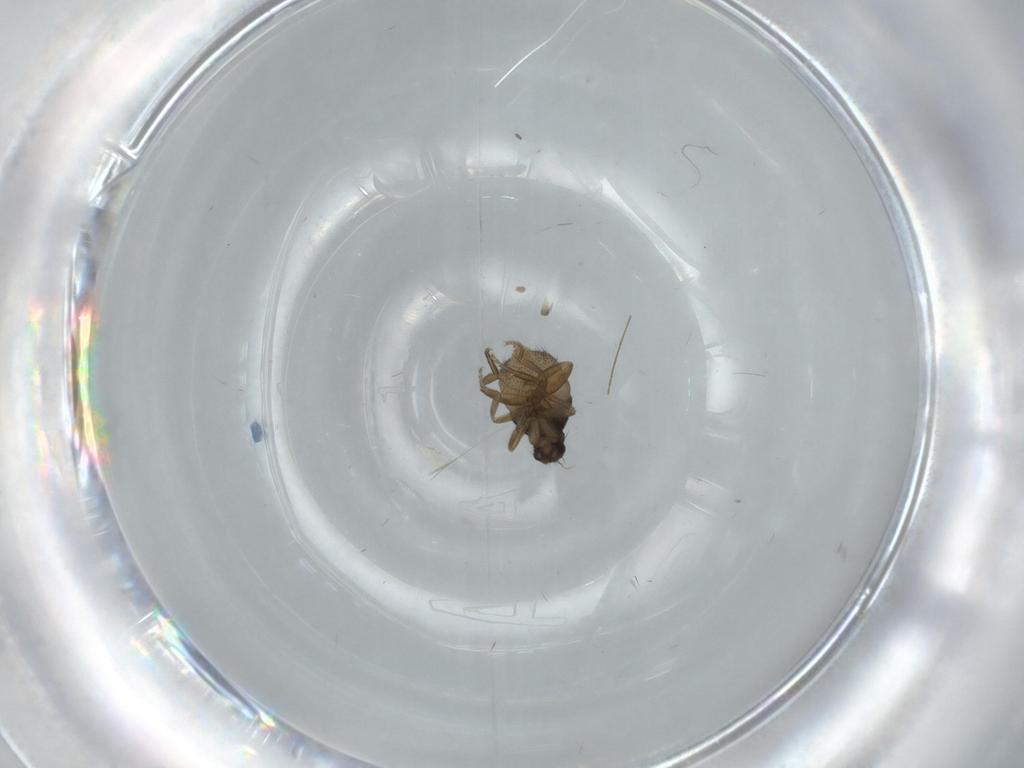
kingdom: Animalia
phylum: Arthropoda
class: Insecta
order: Diptera
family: Phoridae
